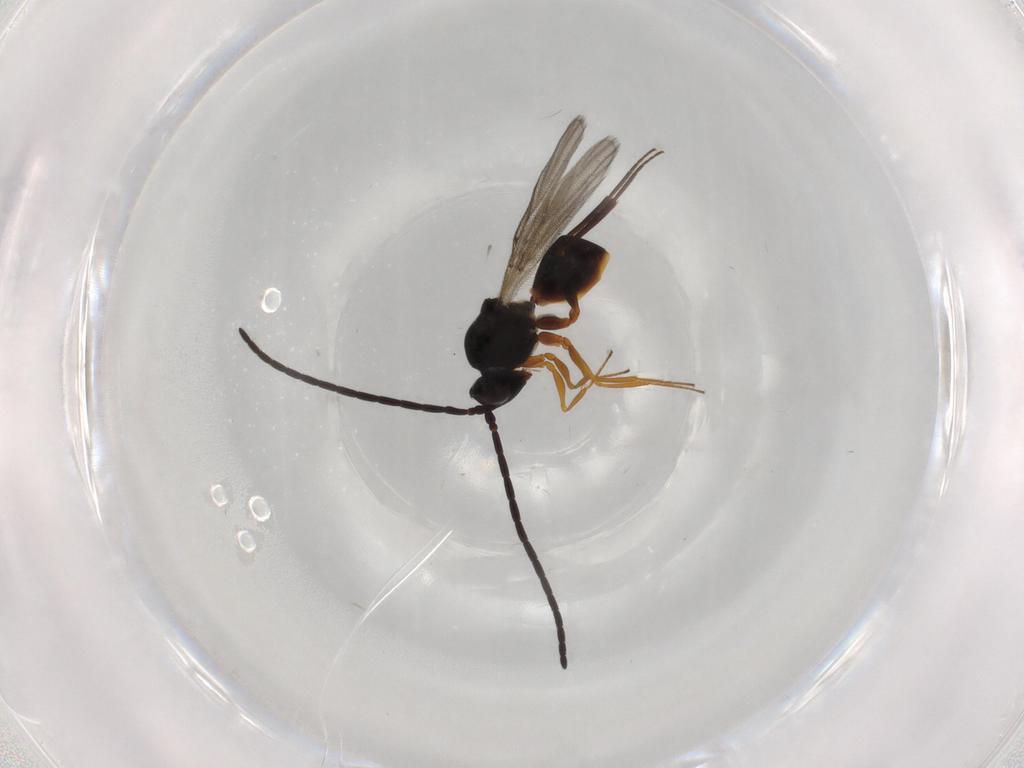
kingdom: Animalia
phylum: Arthropoda
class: Insecta
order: Hymenoptera
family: Figitidae
